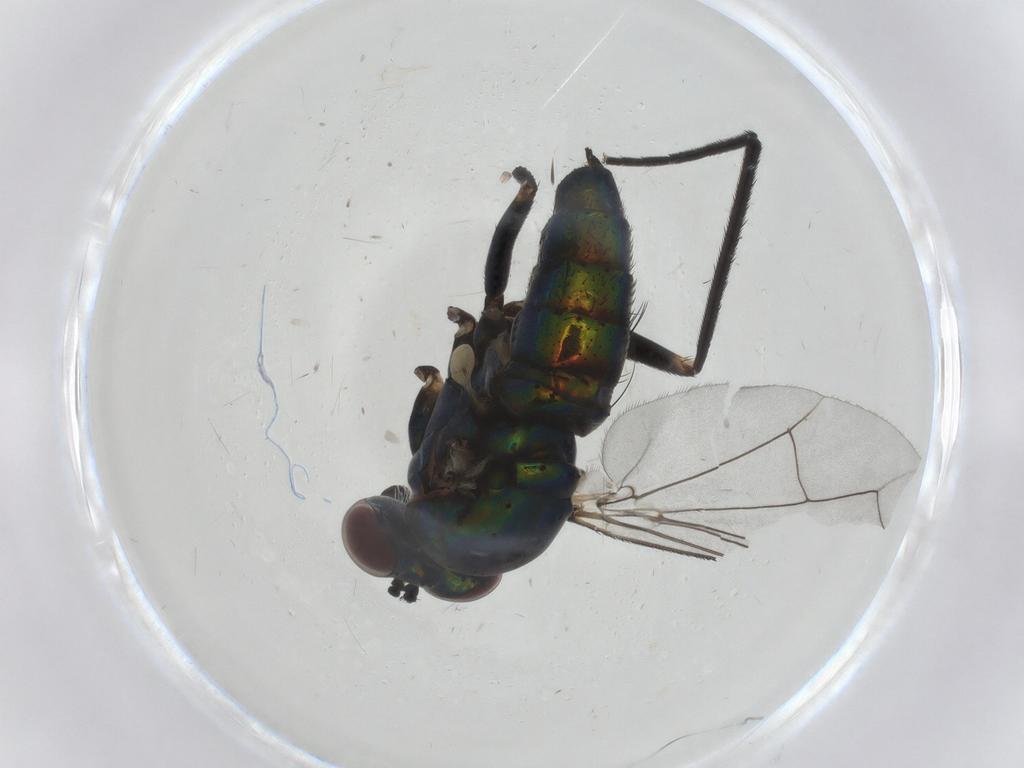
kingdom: Animalia
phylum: Arthropoda
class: Insecta
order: Diptera
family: Dolichopodidae
